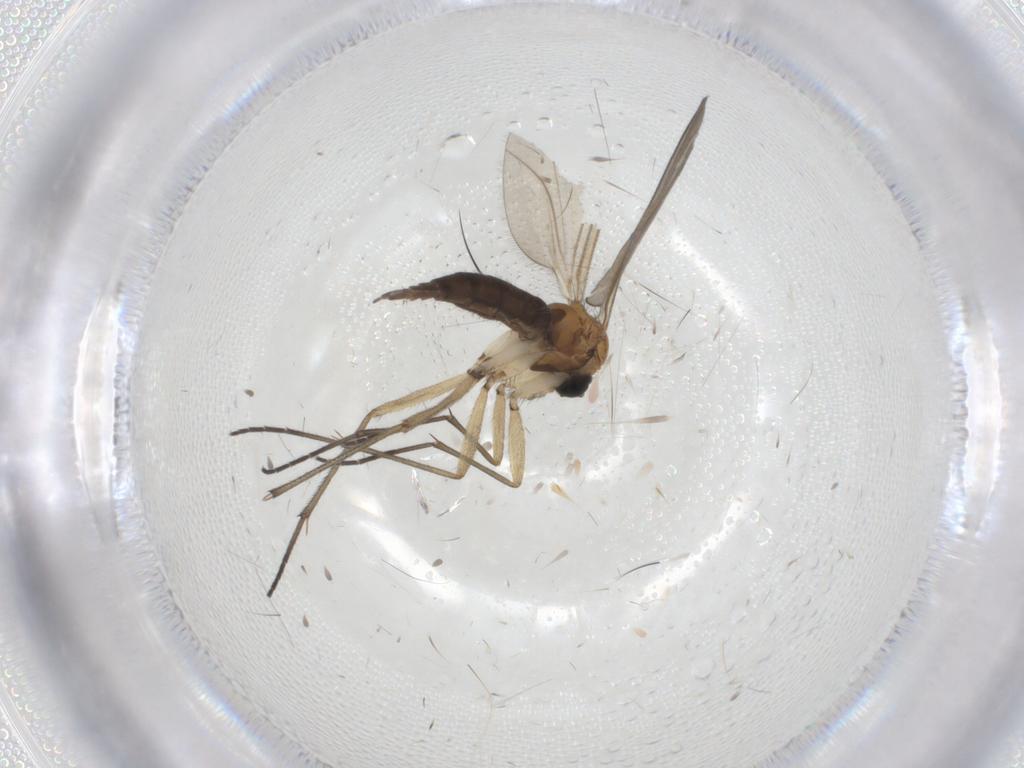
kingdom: Animalia
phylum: Arthropoda
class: Insecta
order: Diptera
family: Sciaridae
